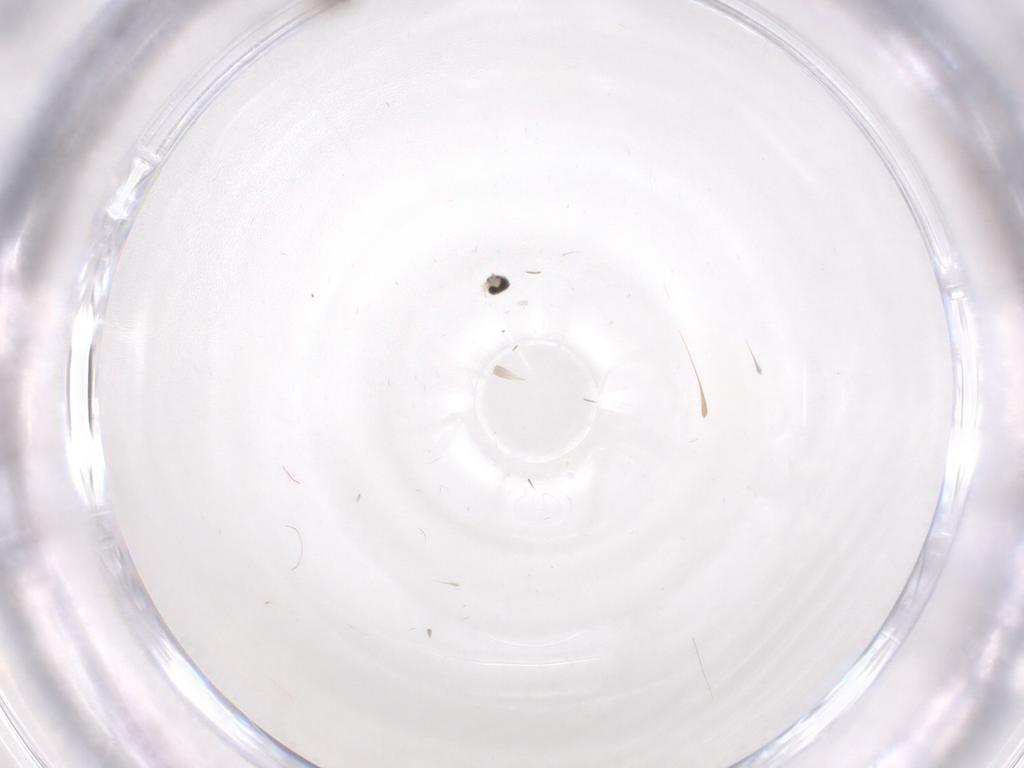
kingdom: Animalia
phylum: Arthropoda
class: Insecta
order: Diptera
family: Cecidomyiidae
